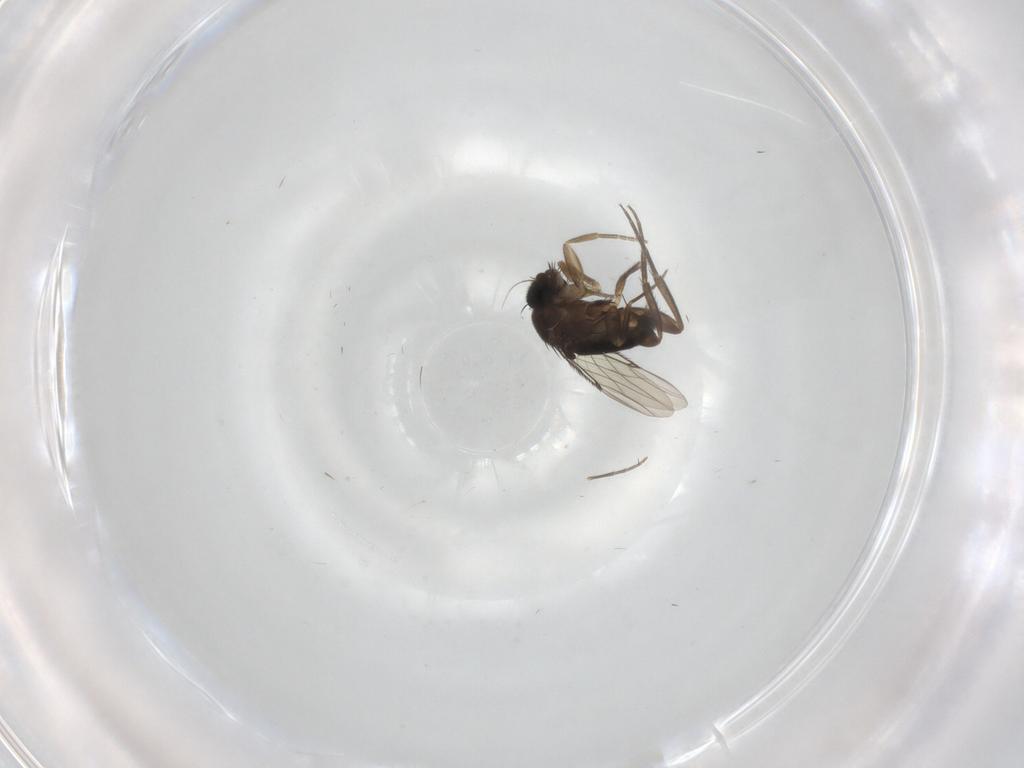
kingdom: Animalia
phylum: Arthropoda
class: Insecta
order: Diptera
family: Phoridae
